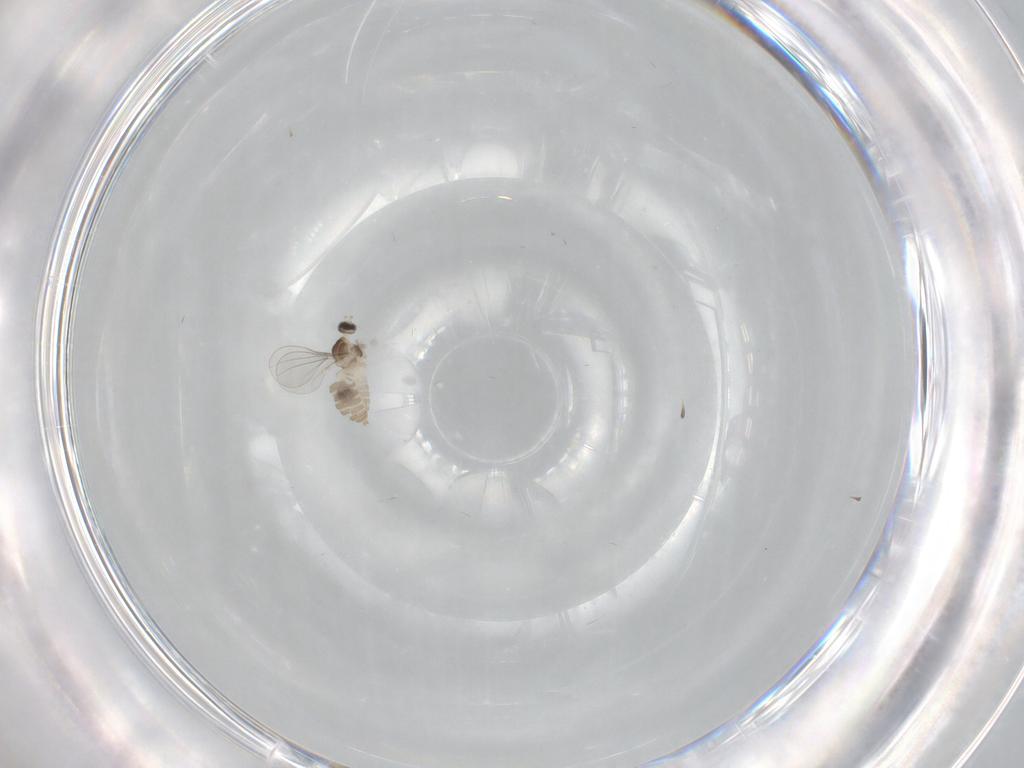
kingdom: Animalia
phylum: Arthropoda
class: Insecta
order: Diptera
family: Cecidomyiidae
